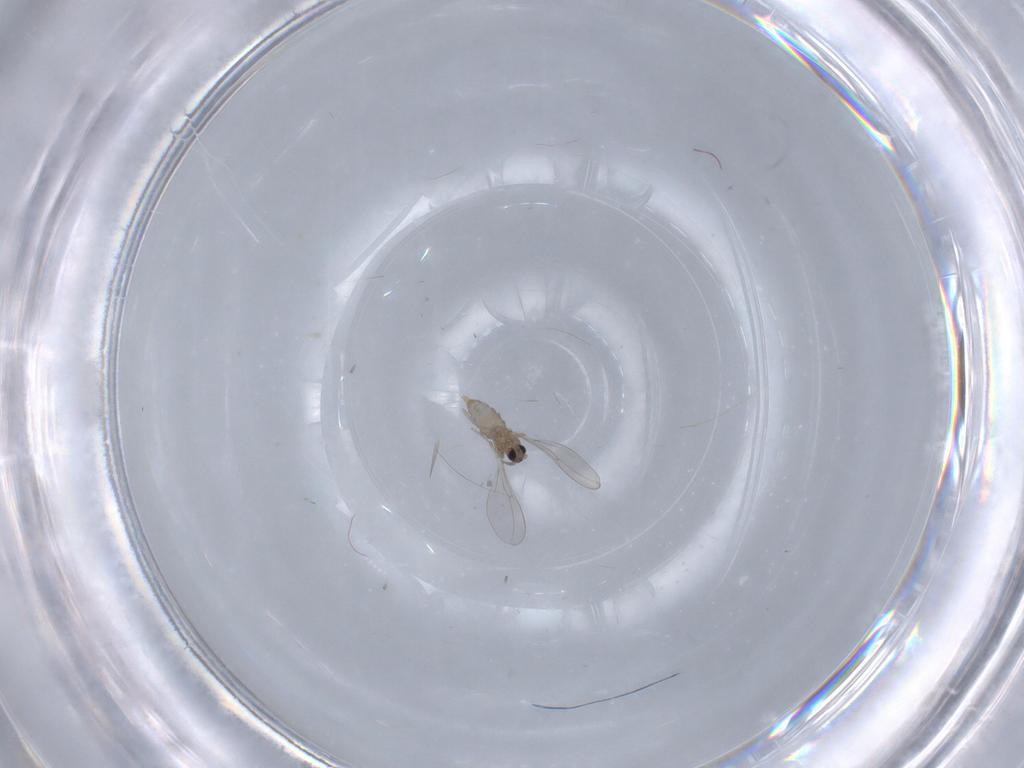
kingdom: Animalia
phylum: Arthropoda
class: Insecta
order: Diptera
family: Cecidomyiidae
